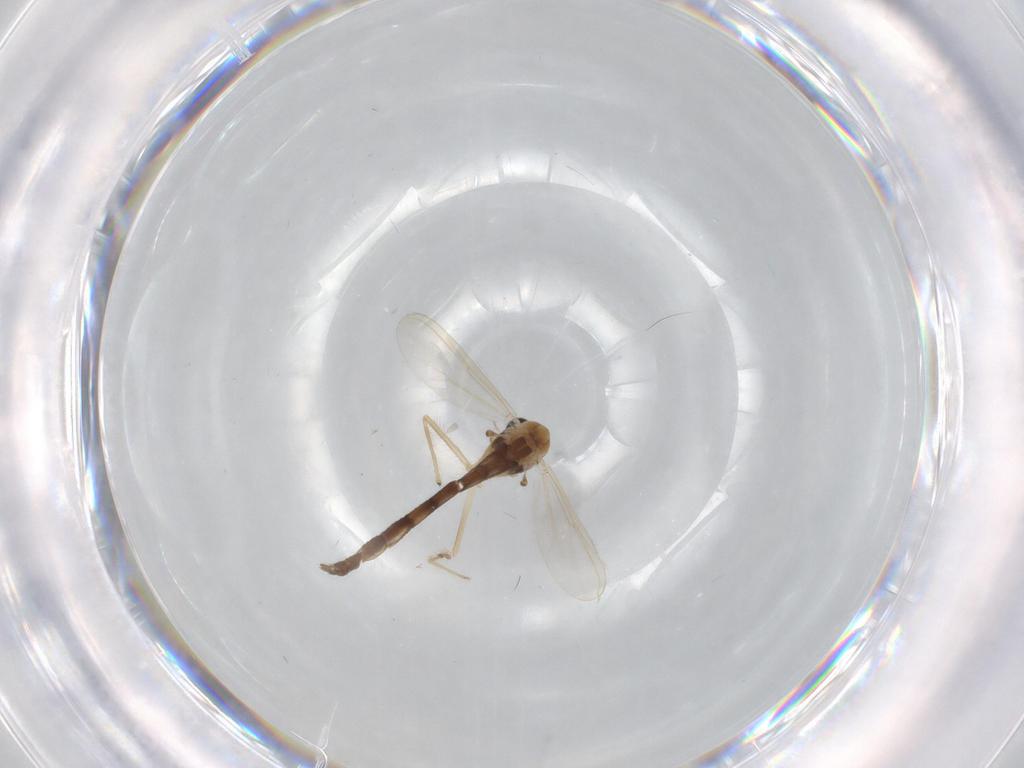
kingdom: Animalia
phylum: Arthropoda
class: Insecta
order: Diptera
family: Chironomidae
